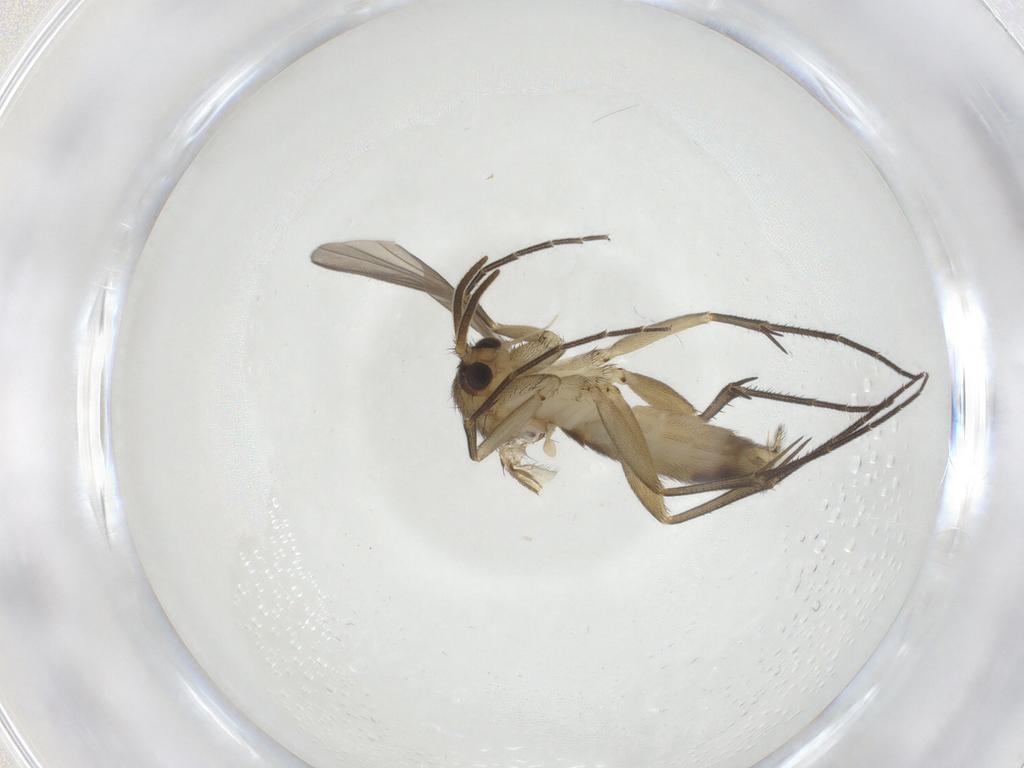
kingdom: Animalia
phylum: Arthropoda
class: Insecta
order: Diptera
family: Mycetophilidae
